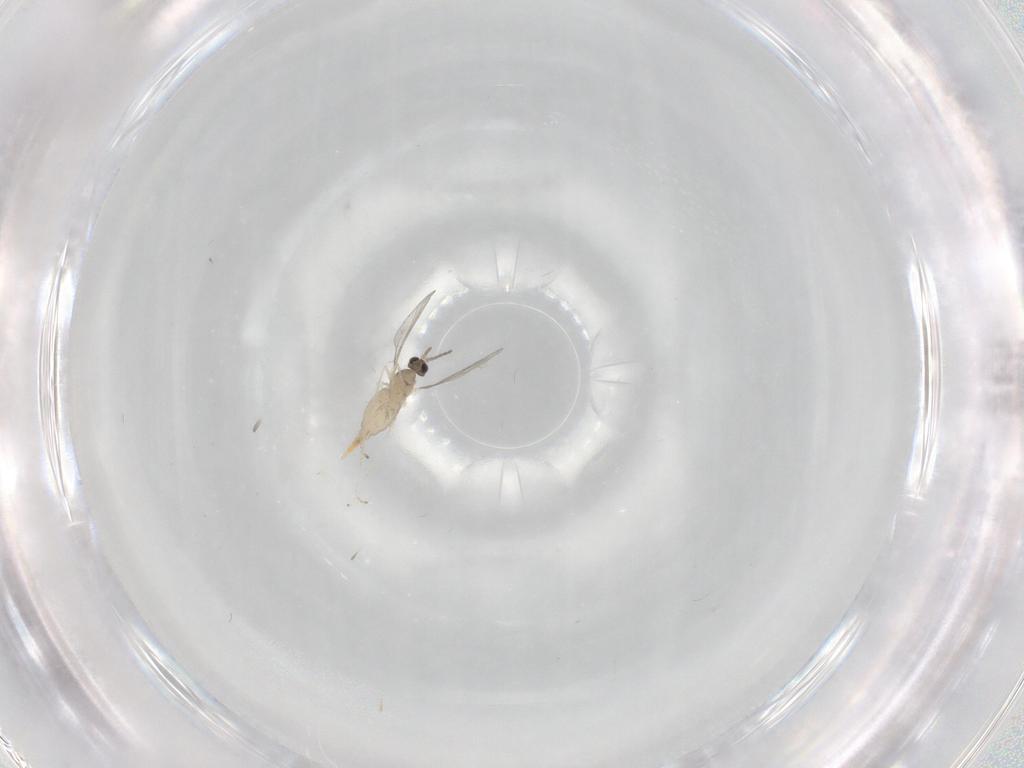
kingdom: Animalia
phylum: Arthropoda
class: Insecta
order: Diptera
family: Cecidomyiidae
